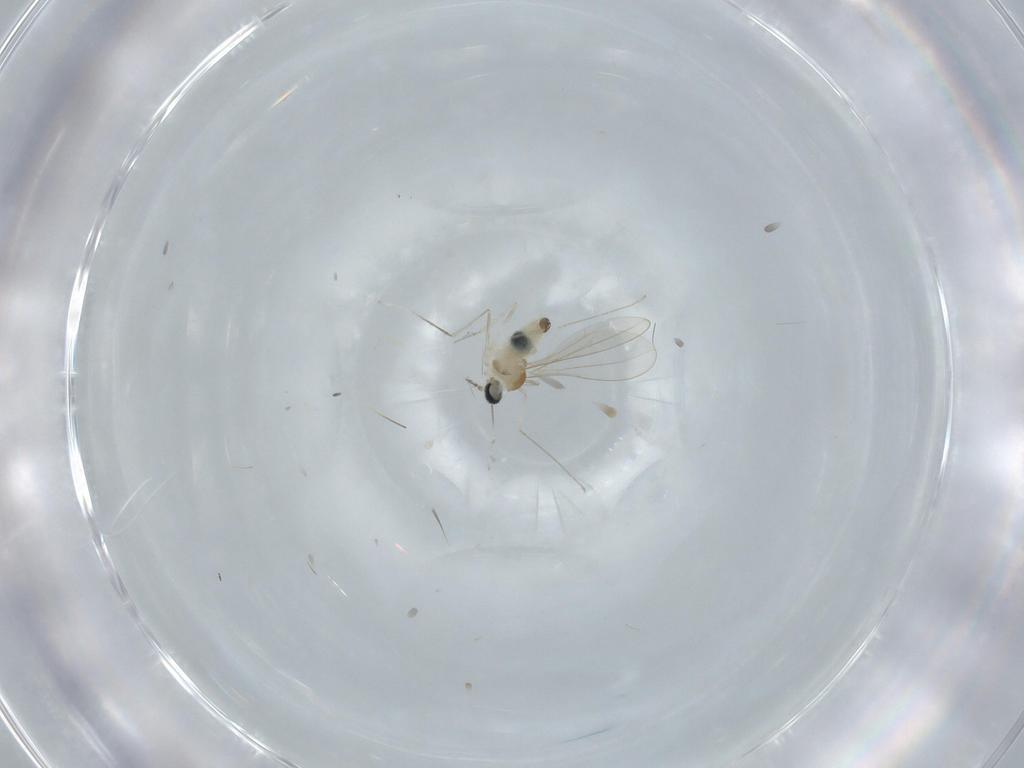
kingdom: Animalia
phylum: Arthropoda
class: Insecta
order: Diptera
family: Cecidomyiidae
